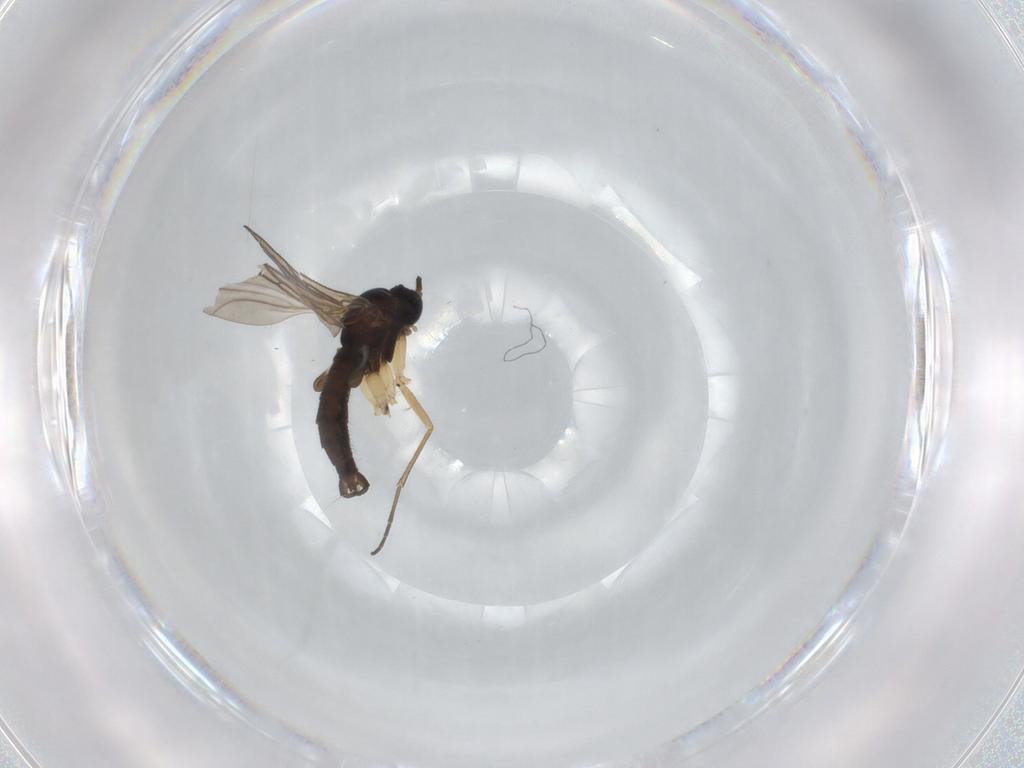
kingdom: Animalia
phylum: Arthropoda
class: Insecta
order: Diptera
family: Sciaridae
